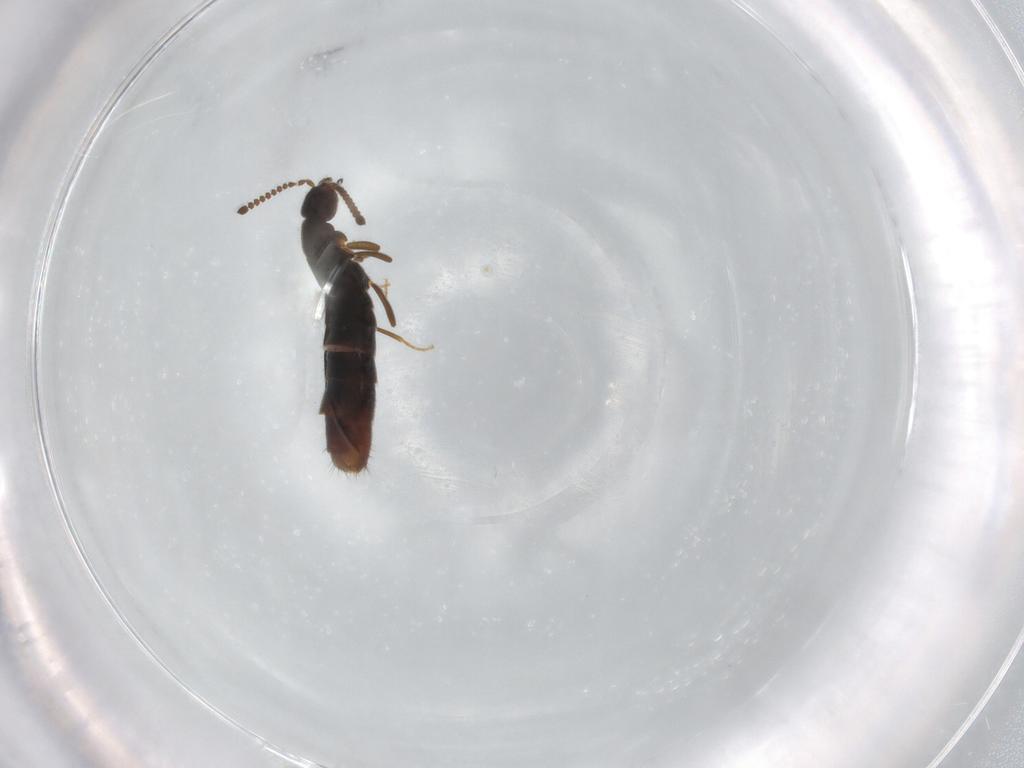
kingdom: Animalia
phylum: Arthropoda
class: Insecta
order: Coleoptera
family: Staphylinidae
